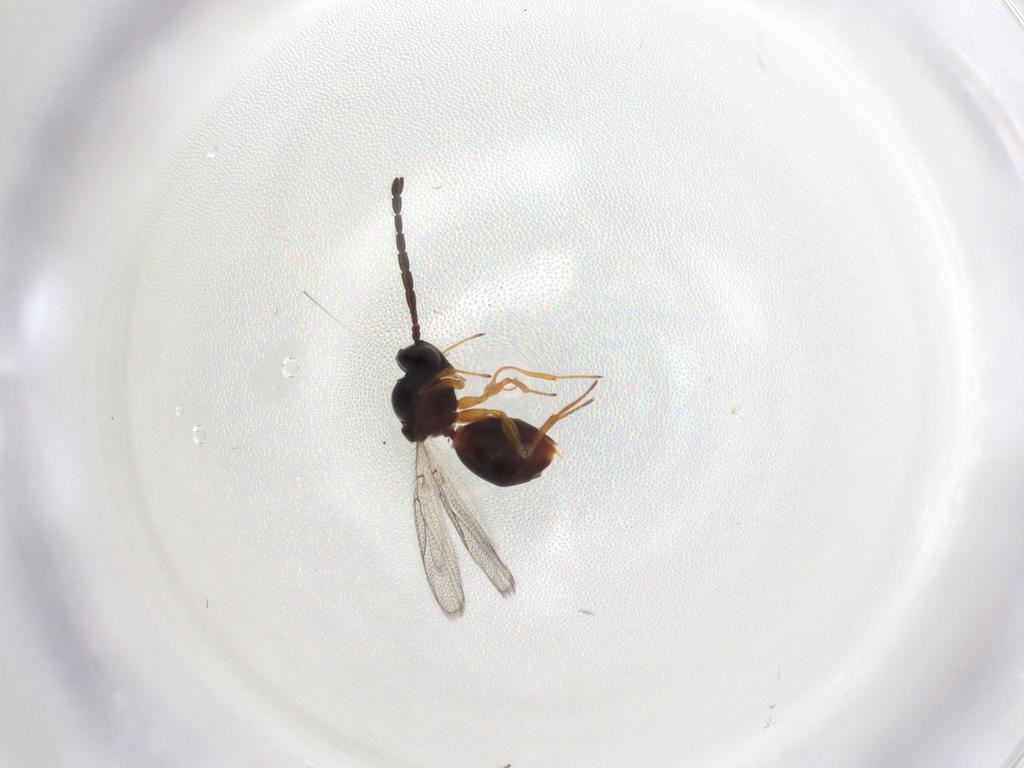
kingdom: Animalia
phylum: Arthropoda
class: Insecta
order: Hymenoptera
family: Figitidae
